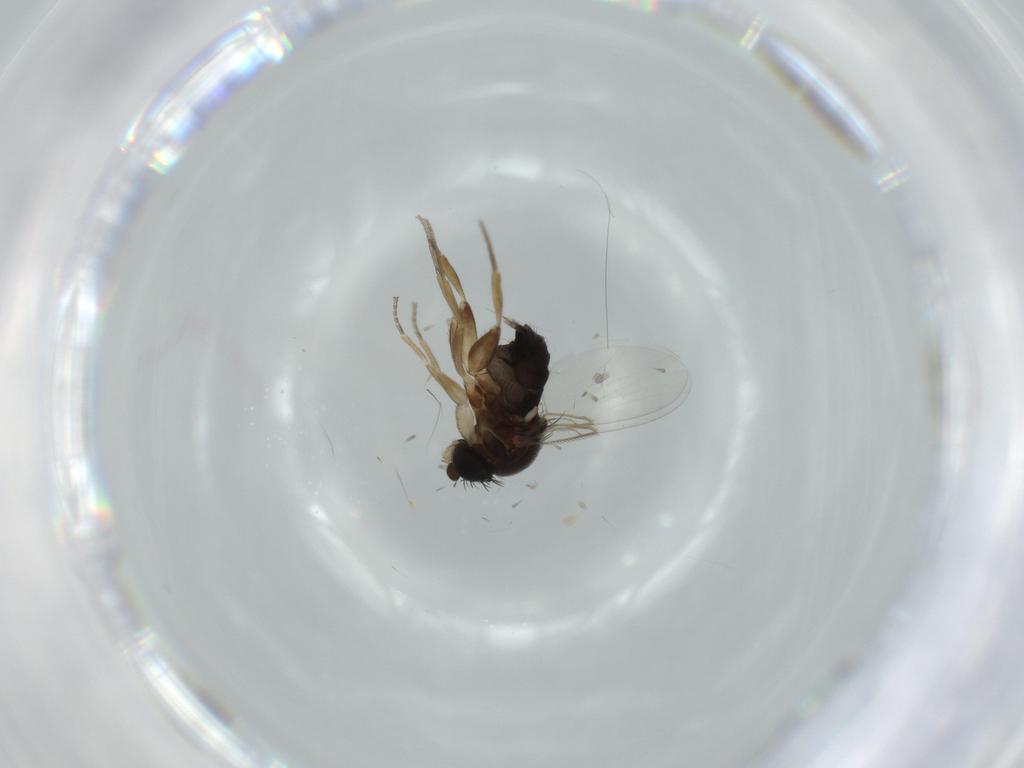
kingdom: Animalia
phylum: Arthropoda
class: Insecta
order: Diptera
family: Phoridae
